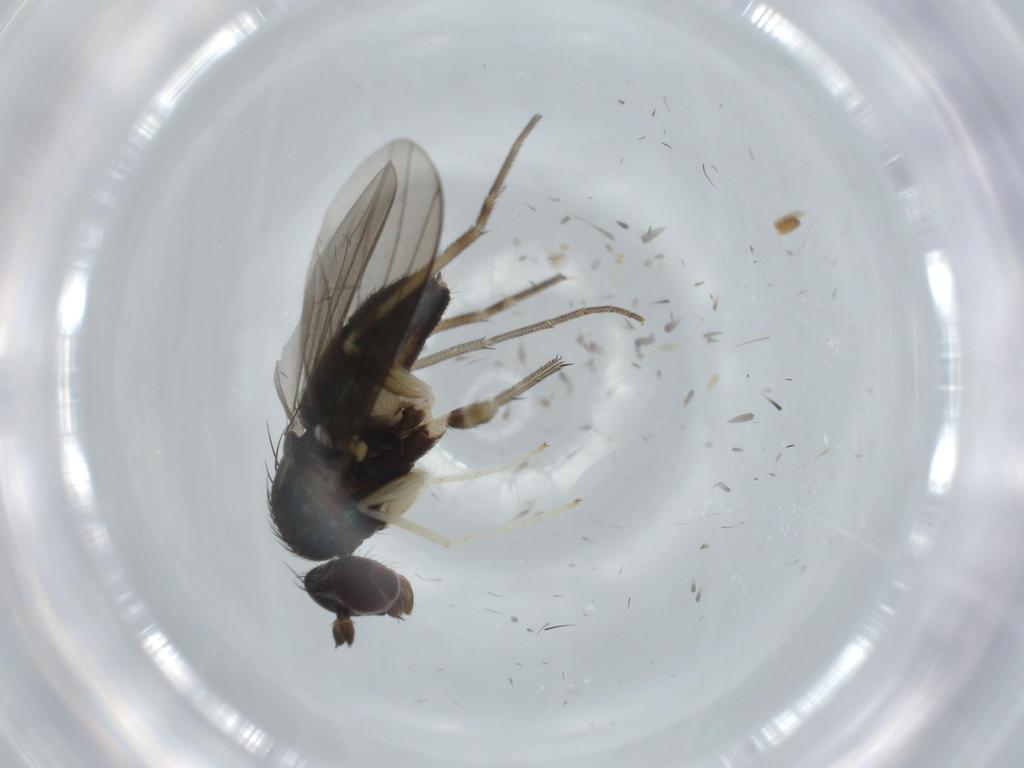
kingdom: Animalia
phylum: Arthropoda
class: Insecta
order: Diptera
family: Dolichopodidae
